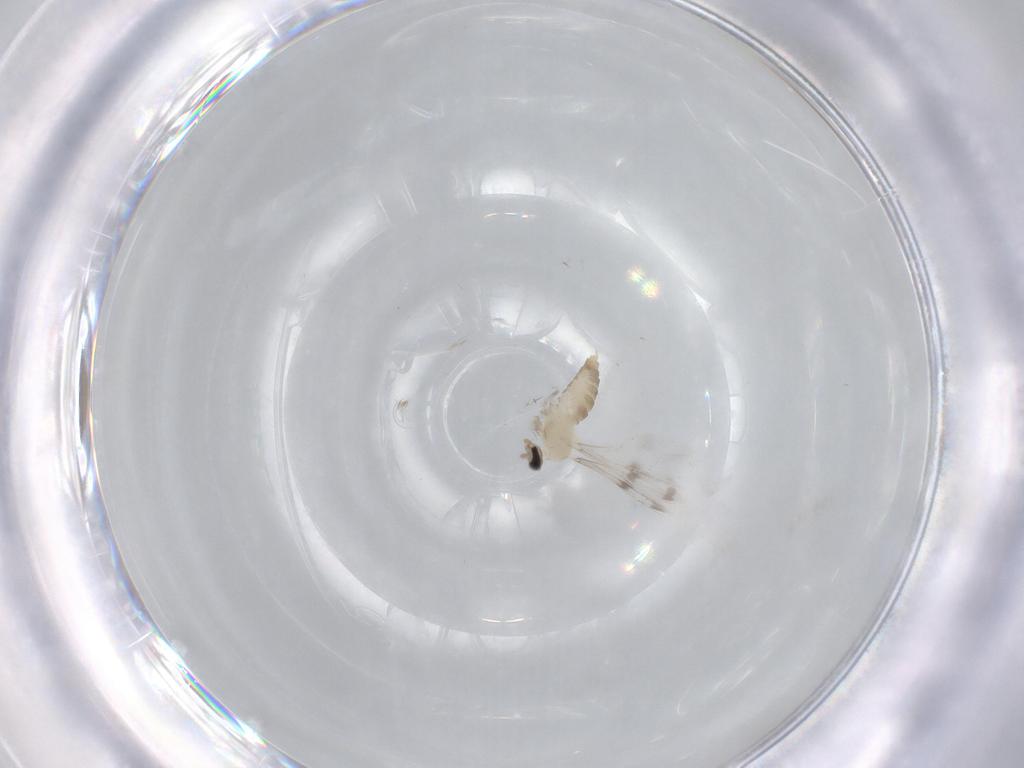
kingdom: Animalia
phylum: Arthropoda
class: Insecta
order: Diptera
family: Cecidomyiidae
